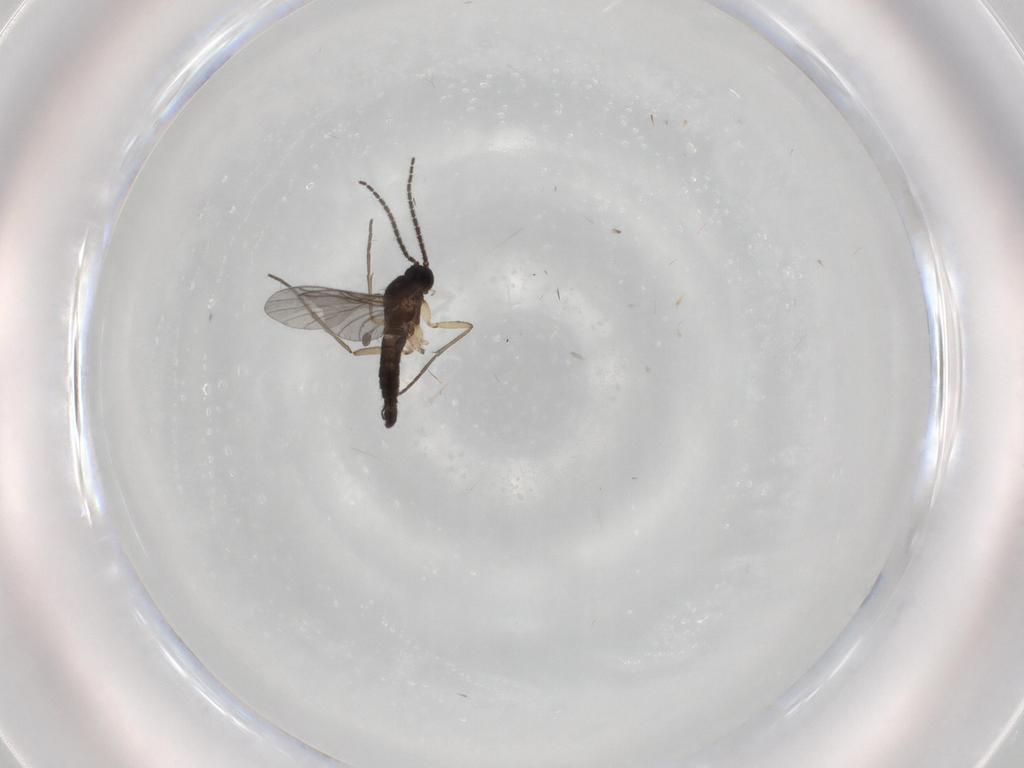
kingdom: Animalia
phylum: Arthropoda
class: Insecta
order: Diptera
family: Sciaridae
